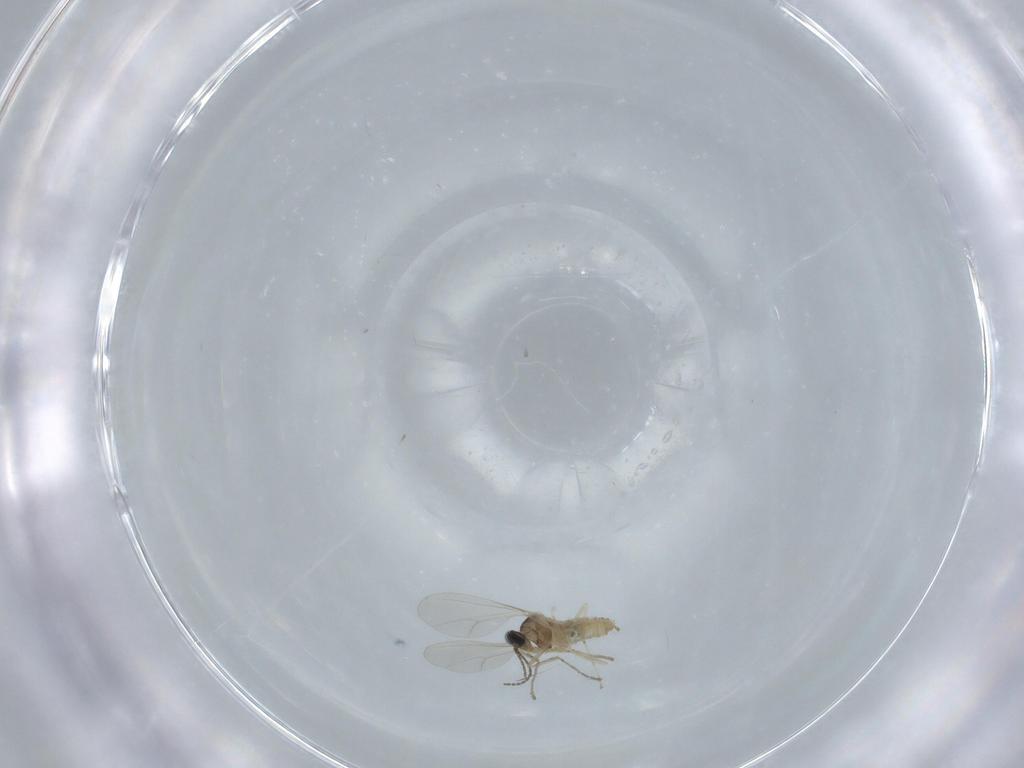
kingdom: Animalia
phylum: Arthropoda
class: Insecta
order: Diptera
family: Cecidomyiidae
